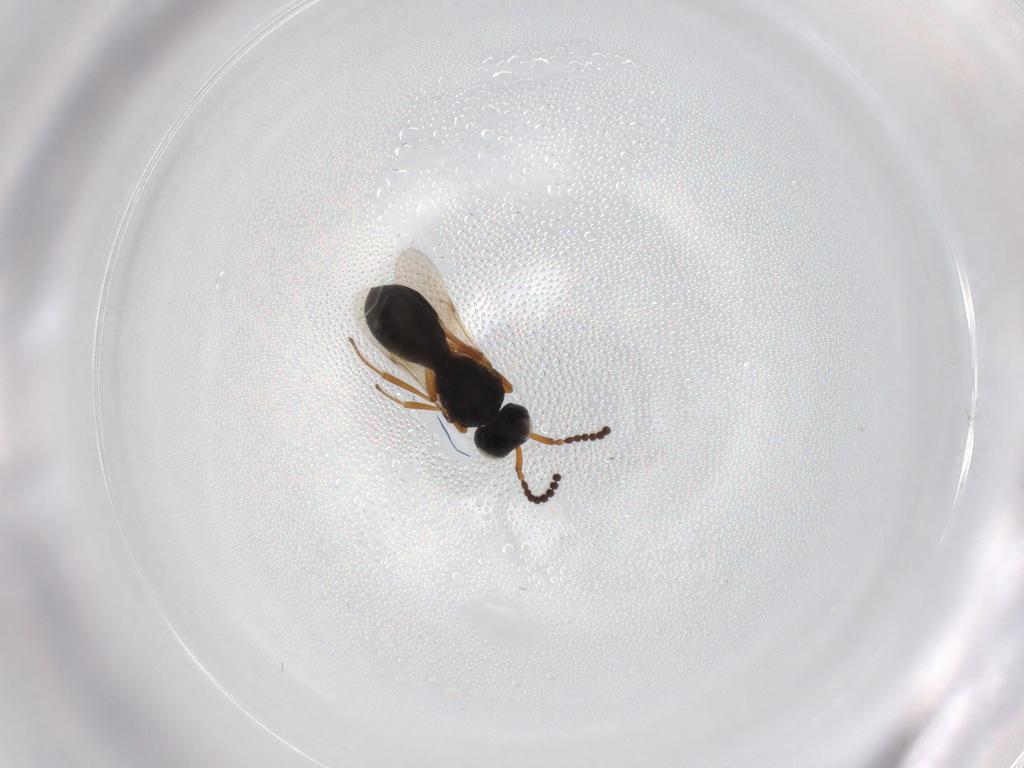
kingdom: Animalia
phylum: Arthropoda
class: Insecta
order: Hymenoptera
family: Scelionidae
